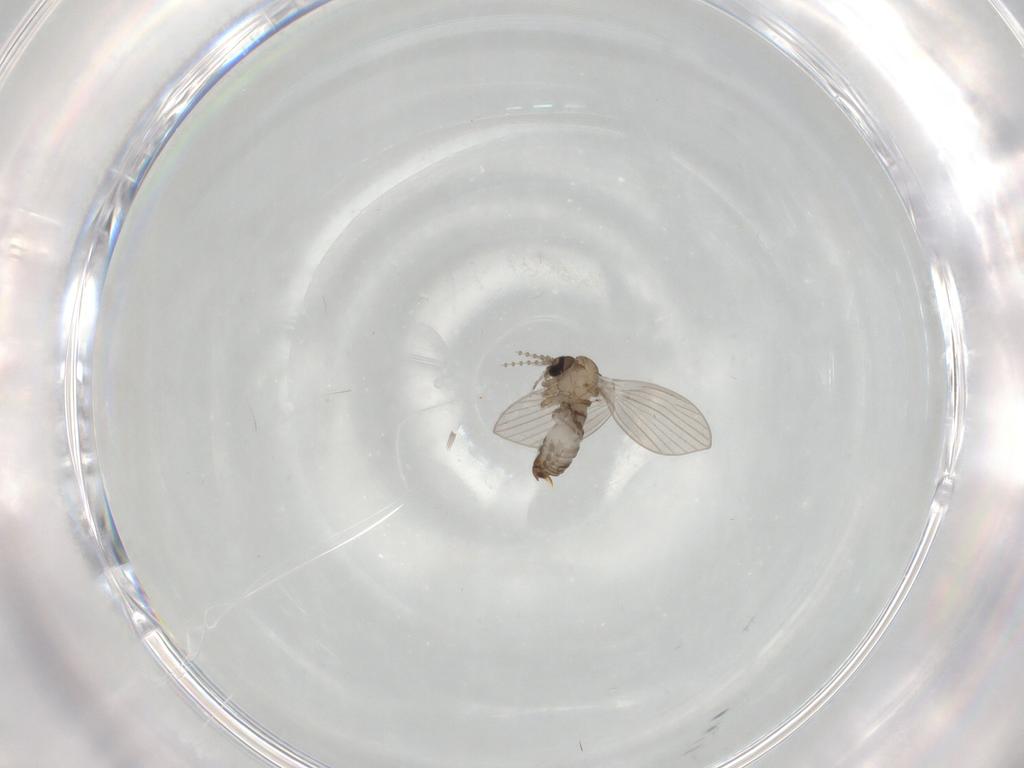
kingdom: Animalia
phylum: Arthropoda
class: Insecta
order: Diptera
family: Psychodidae
